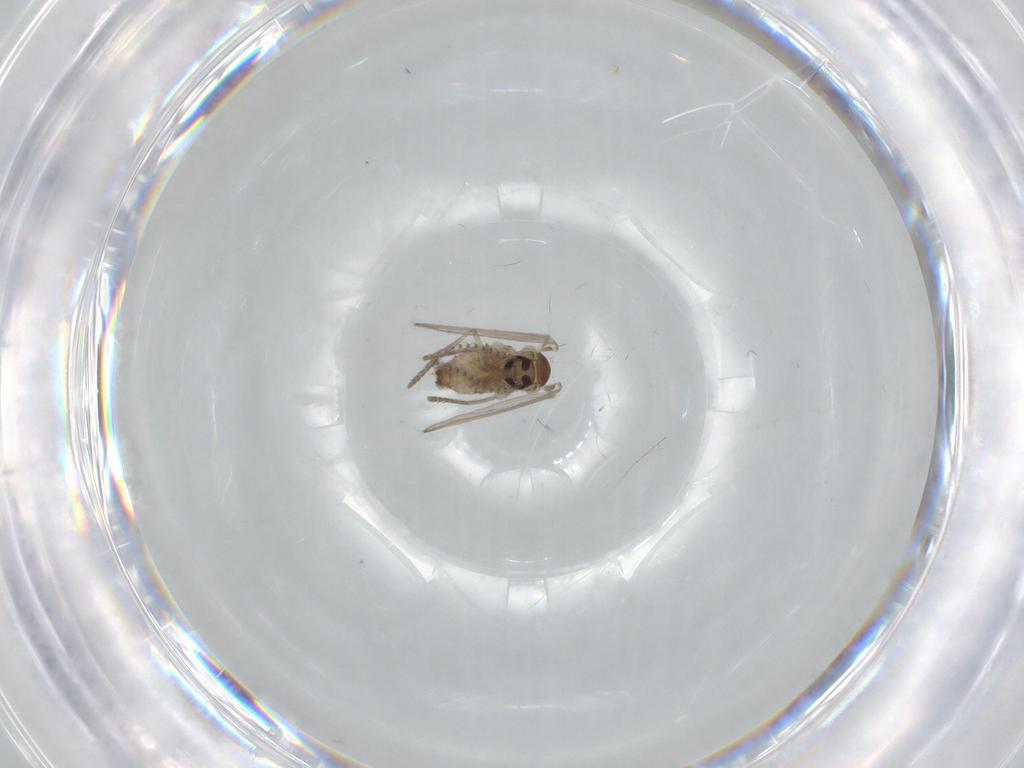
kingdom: Animalia
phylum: Arthropoda
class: Insecta
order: Diptera
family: Psychodidae
